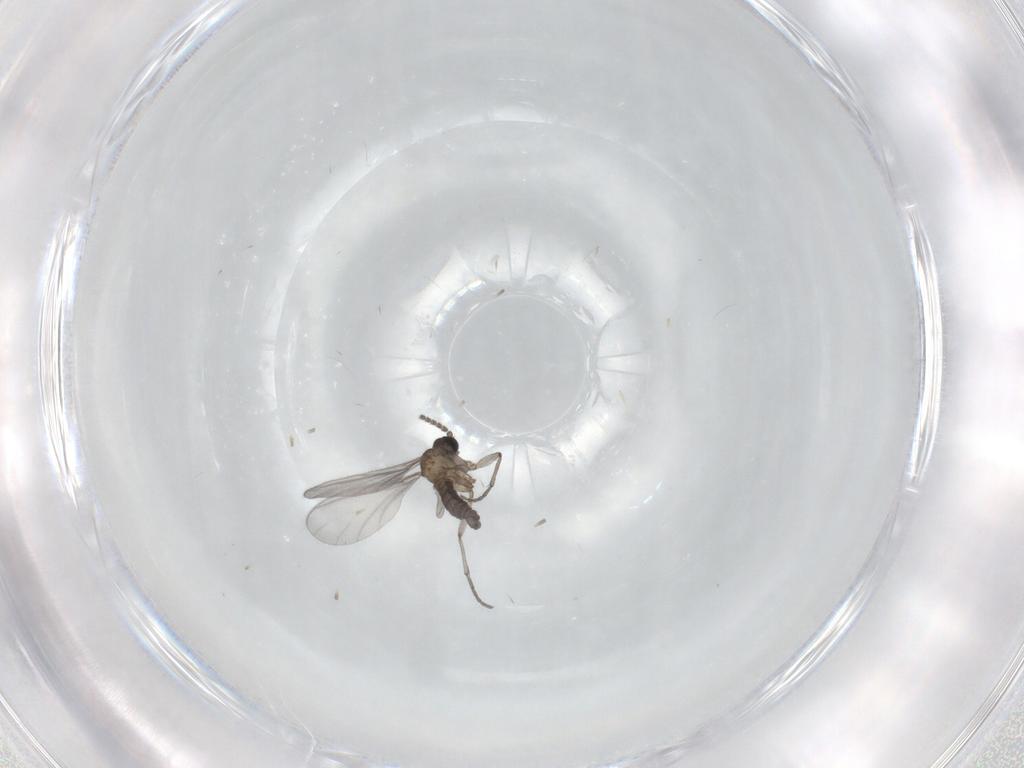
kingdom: Animalia
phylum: Arthropoda
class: Insecta
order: Diptera
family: Sciaridae
